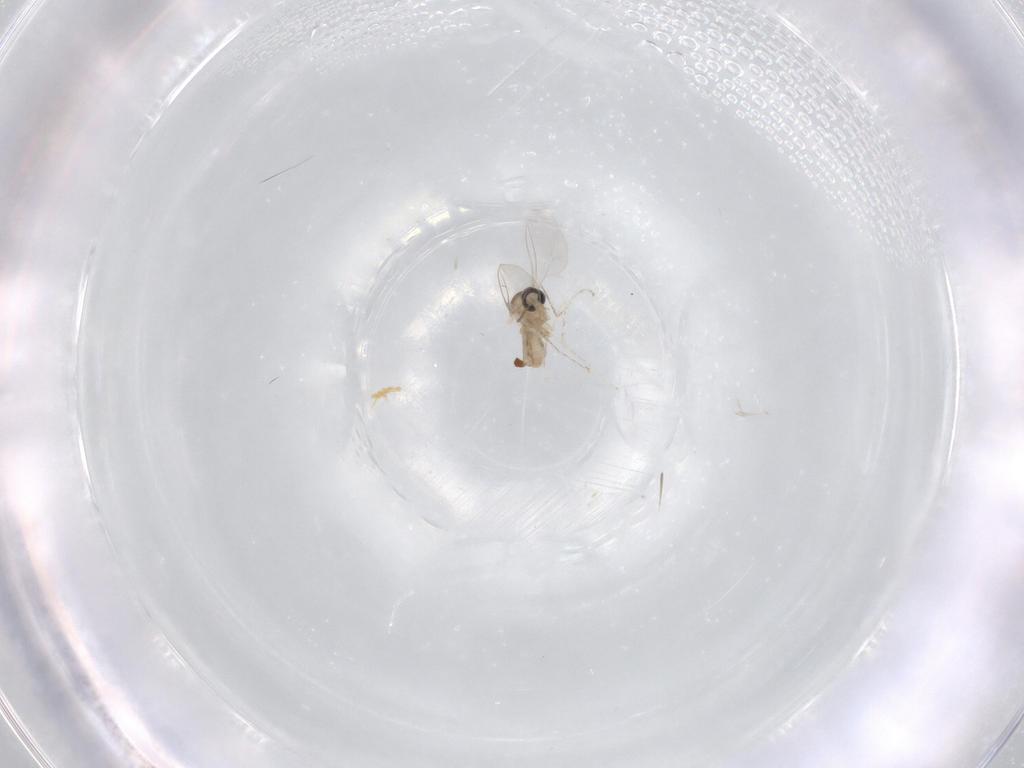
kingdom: Animalia
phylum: Arthropoda
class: Insecta
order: Diptera
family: Cecidomyiidae
